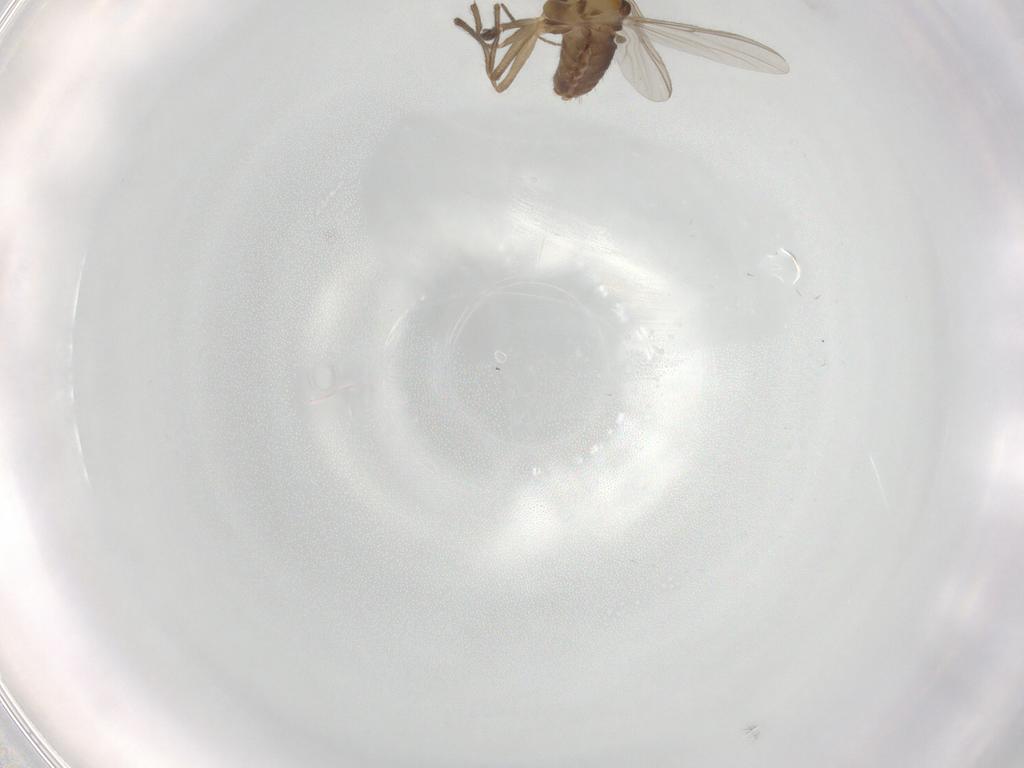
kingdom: Animalia
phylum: Arthropoda
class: Insecta
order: Diptera
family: Chironomidae
